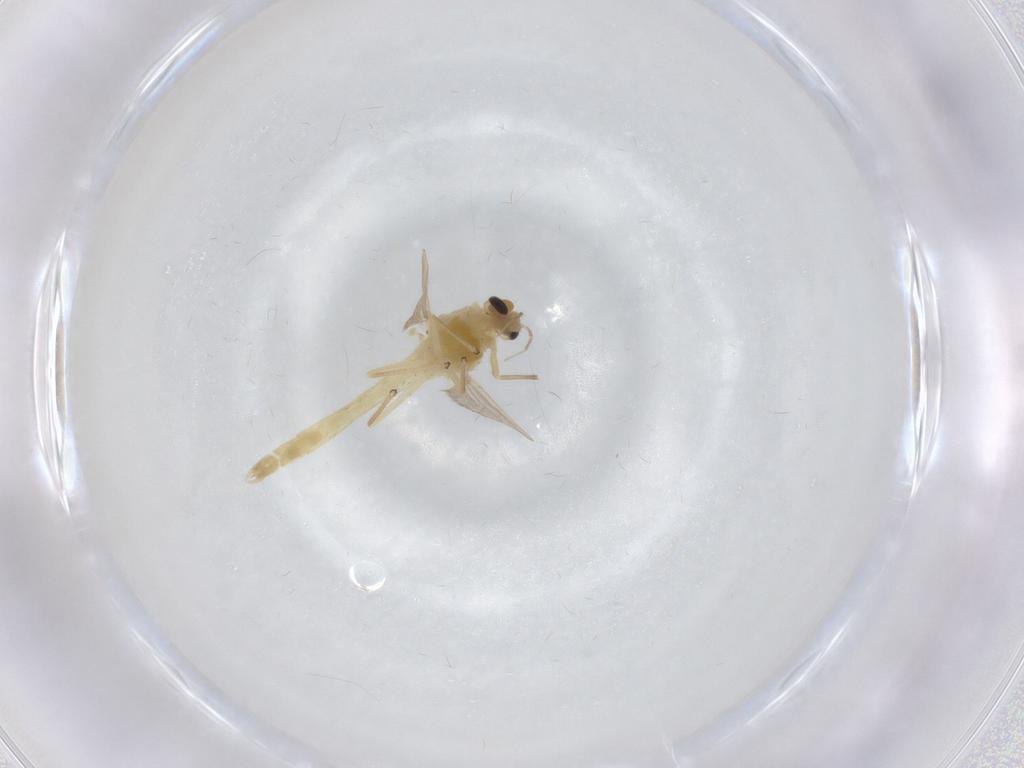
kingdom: Animalia
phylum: Arthropoda
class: Insecta
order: Diptera
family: Chironomidae
